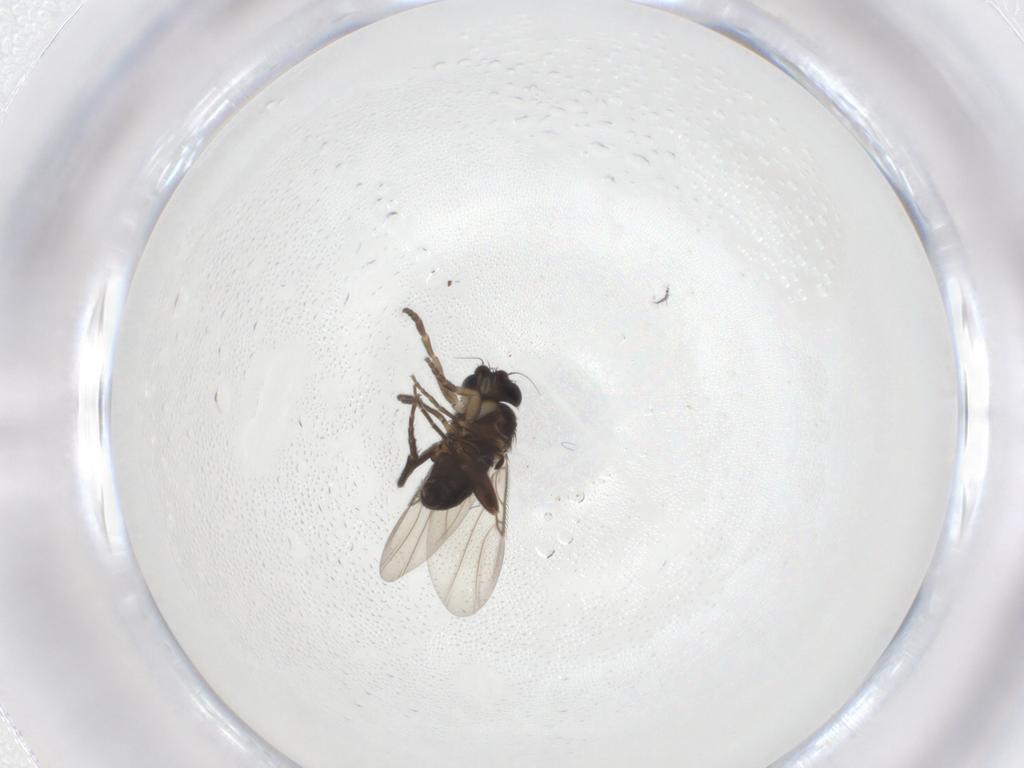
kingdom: Animalia
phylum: Arthropoda
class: Insecta
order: Diptera
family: Phoridae
